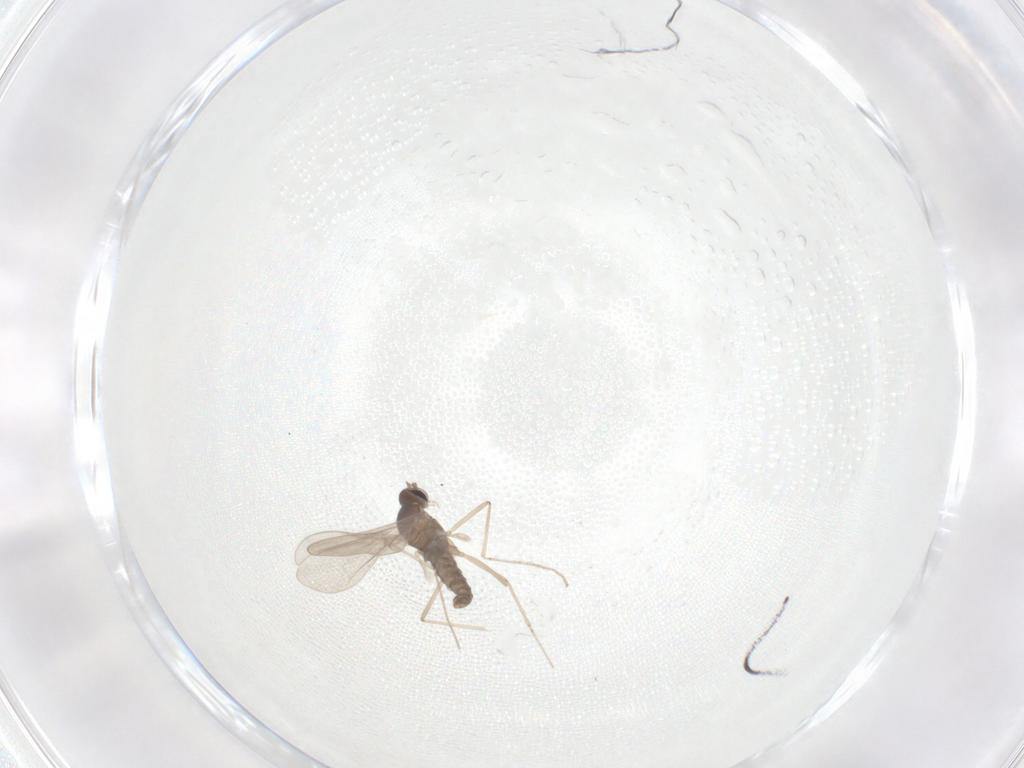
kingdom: Animalia
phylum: Arthropoda
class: Insecta
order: Diptera
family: Cecidomyiidae
